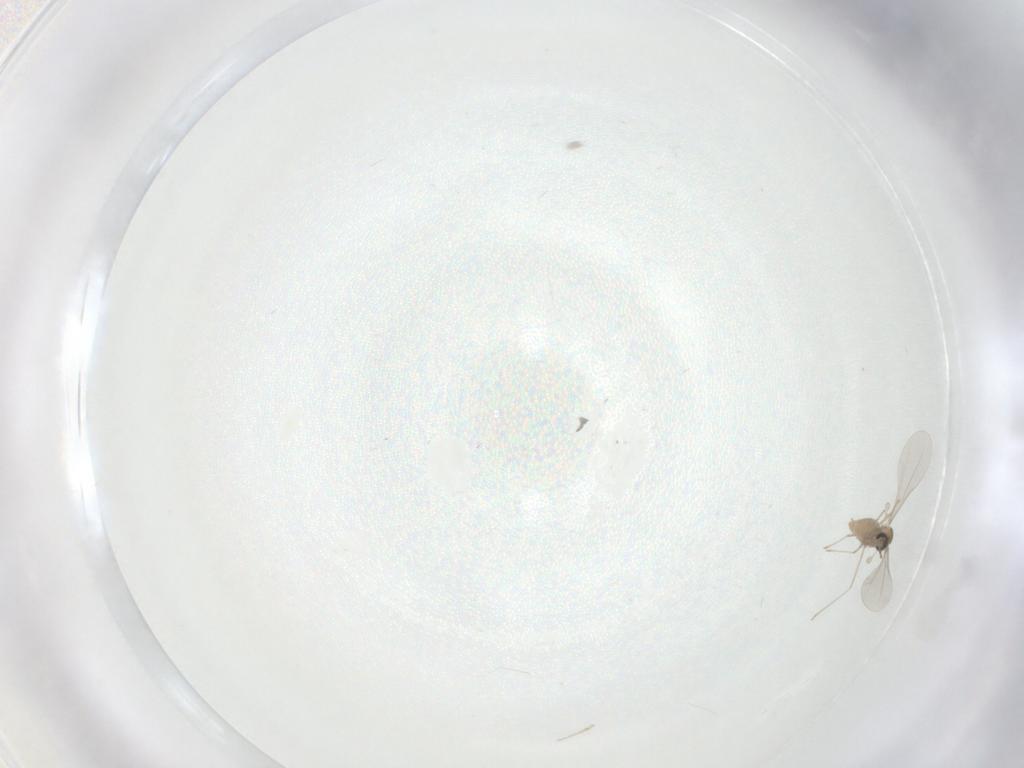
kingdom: Animalia
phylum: Arthropoda
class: Insecta
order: Diptera
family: Cecidomyiidae
